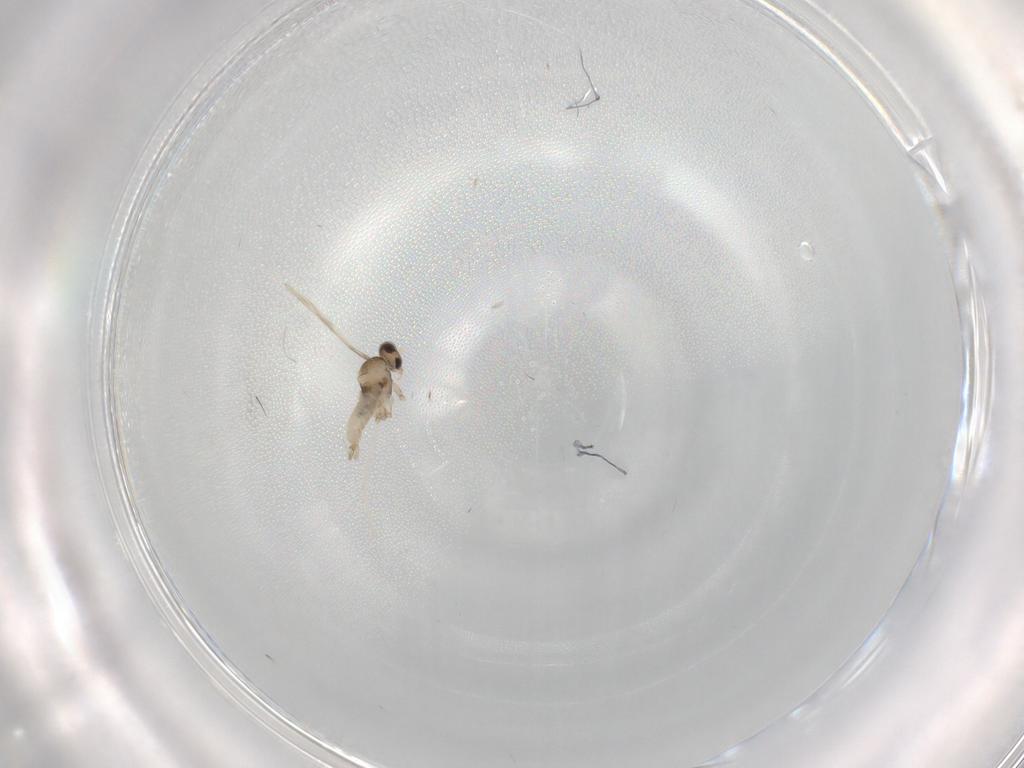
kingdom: Animalia
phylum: Arthropoda
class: Insecta
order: Diptera
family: Cecidomyiidae
